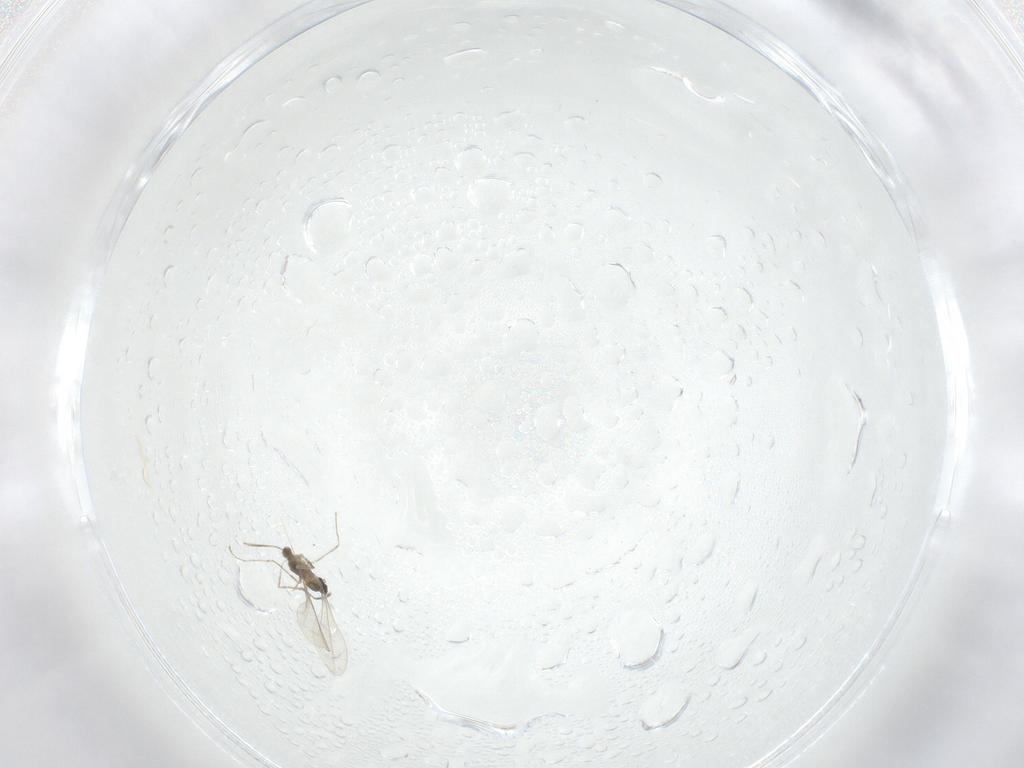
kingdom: Animalia
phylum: Arthropoda
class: Insecta
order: Diptera
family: Cecidomyiidae
